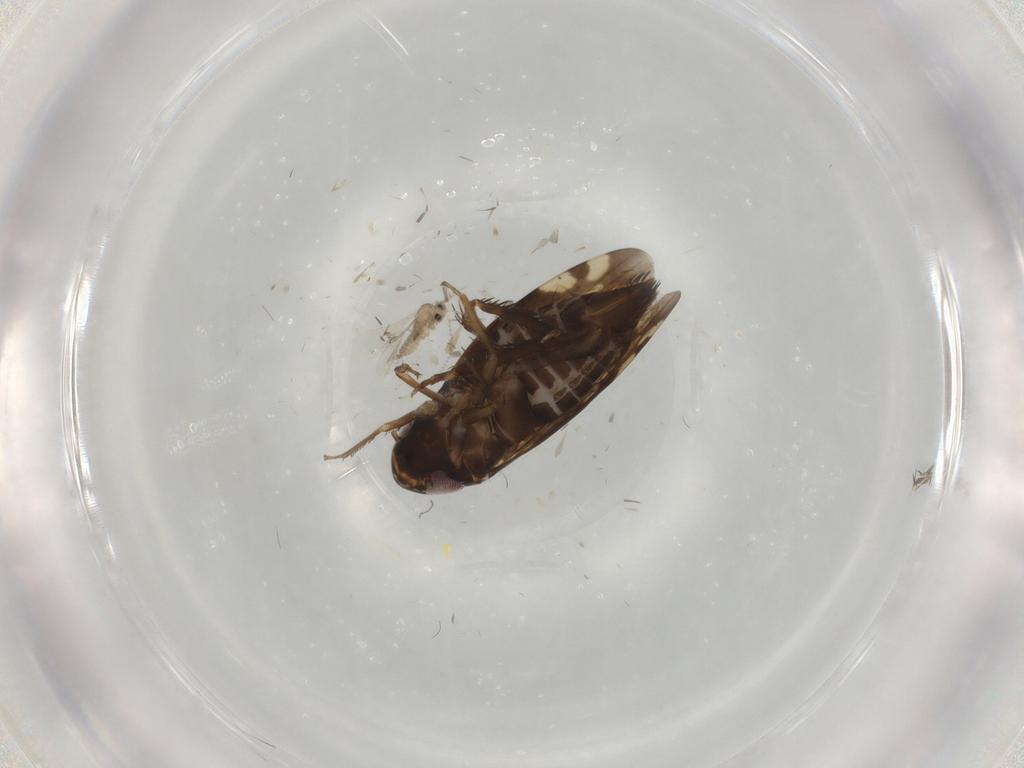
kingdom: Animalia
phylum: Arthropoda
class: Insecta
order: Hemiptera
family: Cicadellidae
